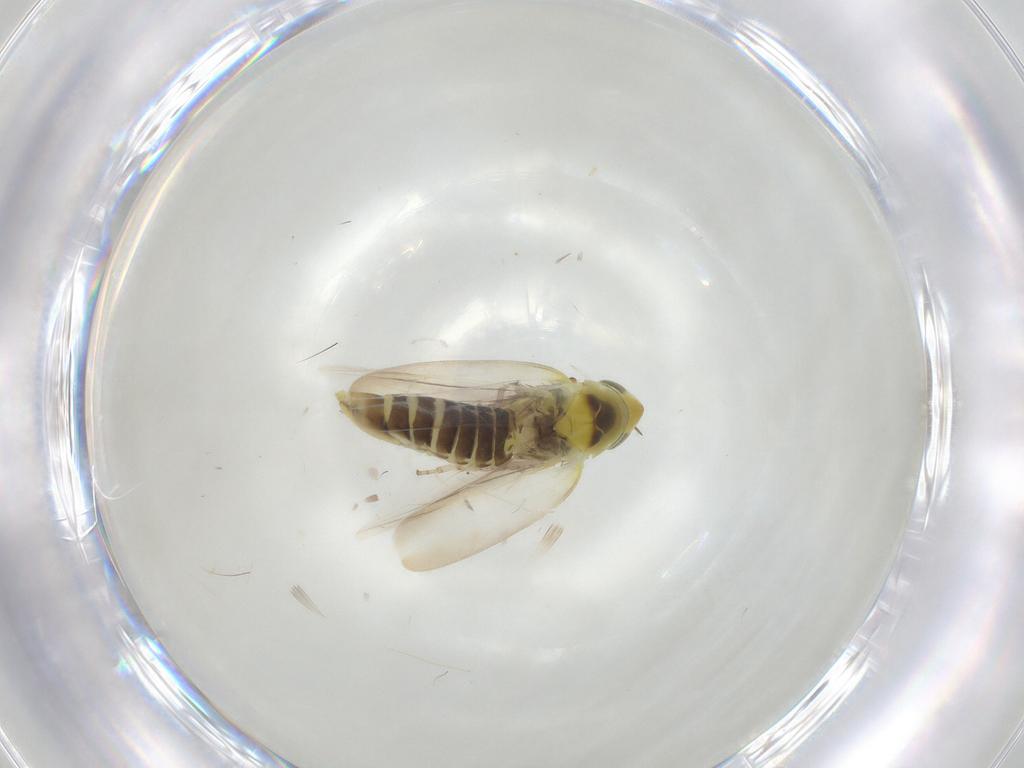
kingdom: Animalia
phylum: Arthropoda
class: Insecta
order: Hemiptera
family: Cicadellidae
